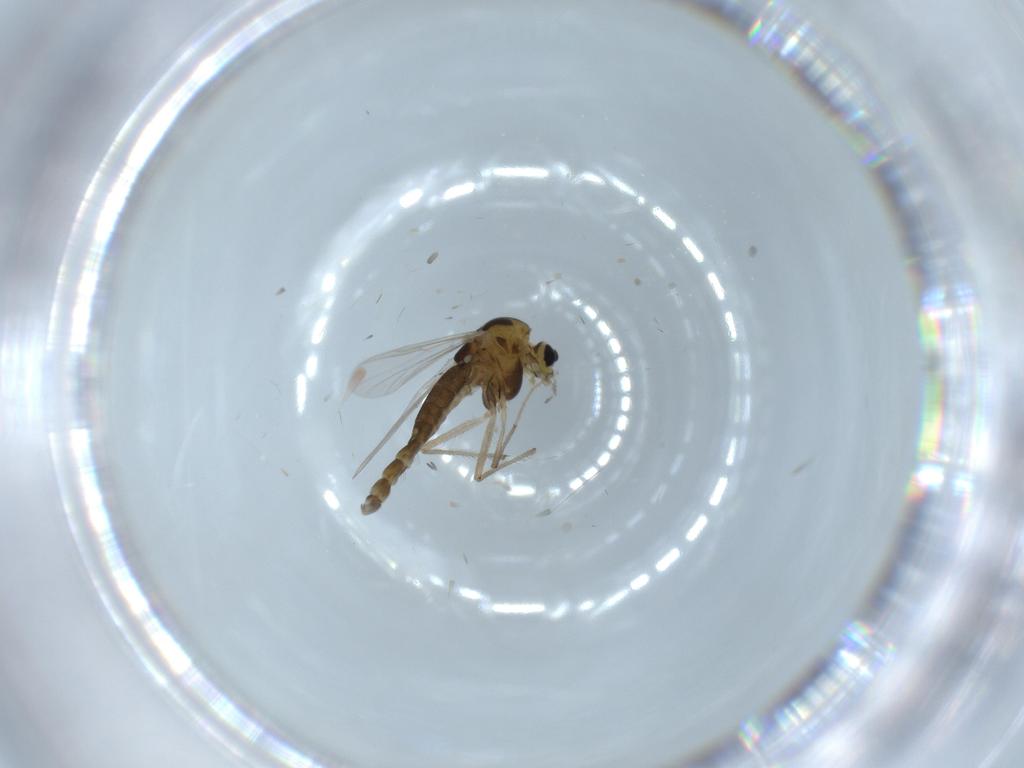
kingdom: Animalia
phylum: Arthropoda
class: Insecta
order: Diptera
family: Chironomidae
